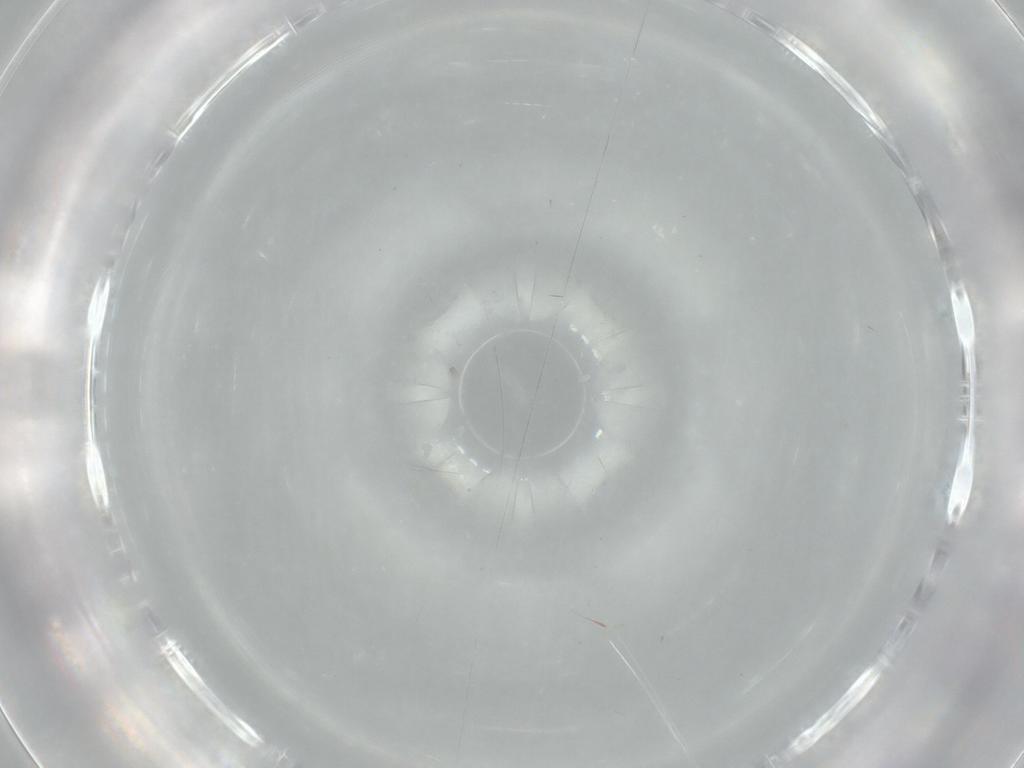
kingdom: Animalia
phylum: Arthropoda
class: Insecta
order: Diptera
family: Cecidomyiidae
